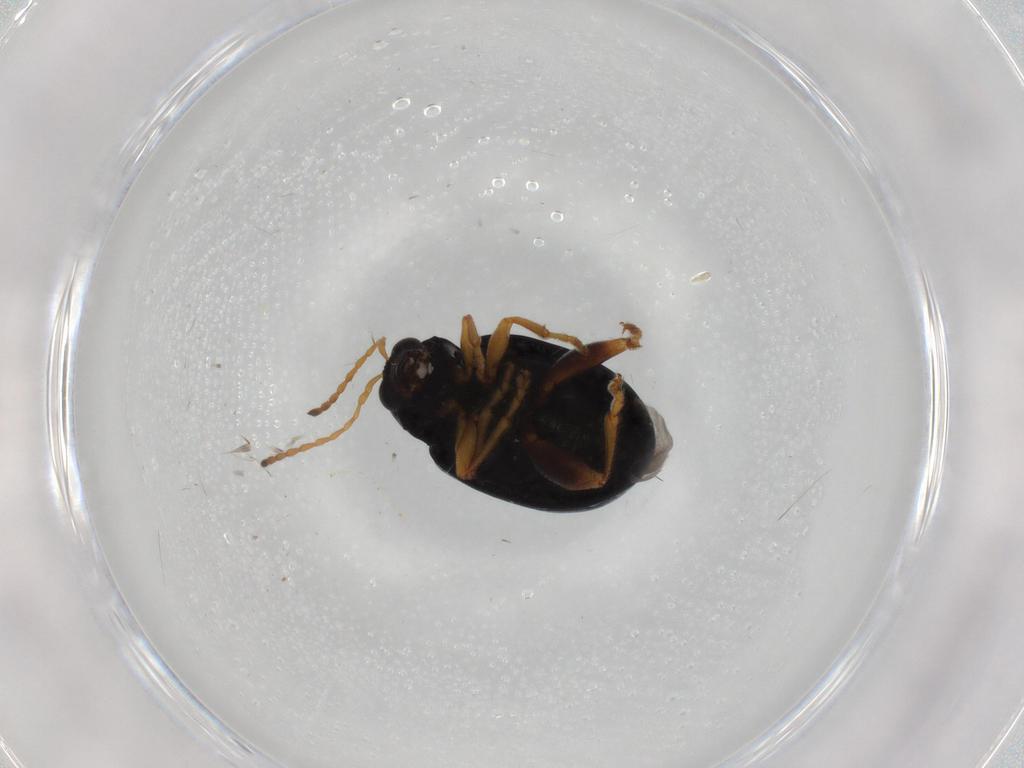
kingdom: Animalia
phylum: Arthropoda
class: Insecta
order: Coleoptera
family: Chrysomelidae
